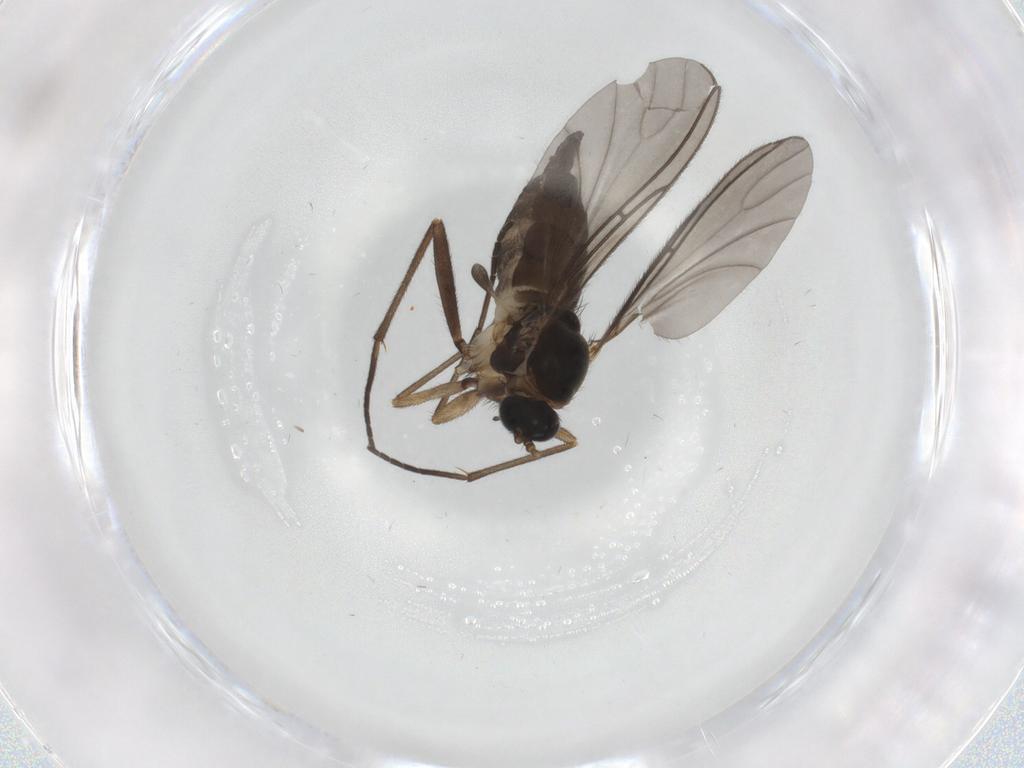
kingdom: Animalia
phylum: Arthropoda
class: Insecta
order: Diptera
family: Sciaridae
